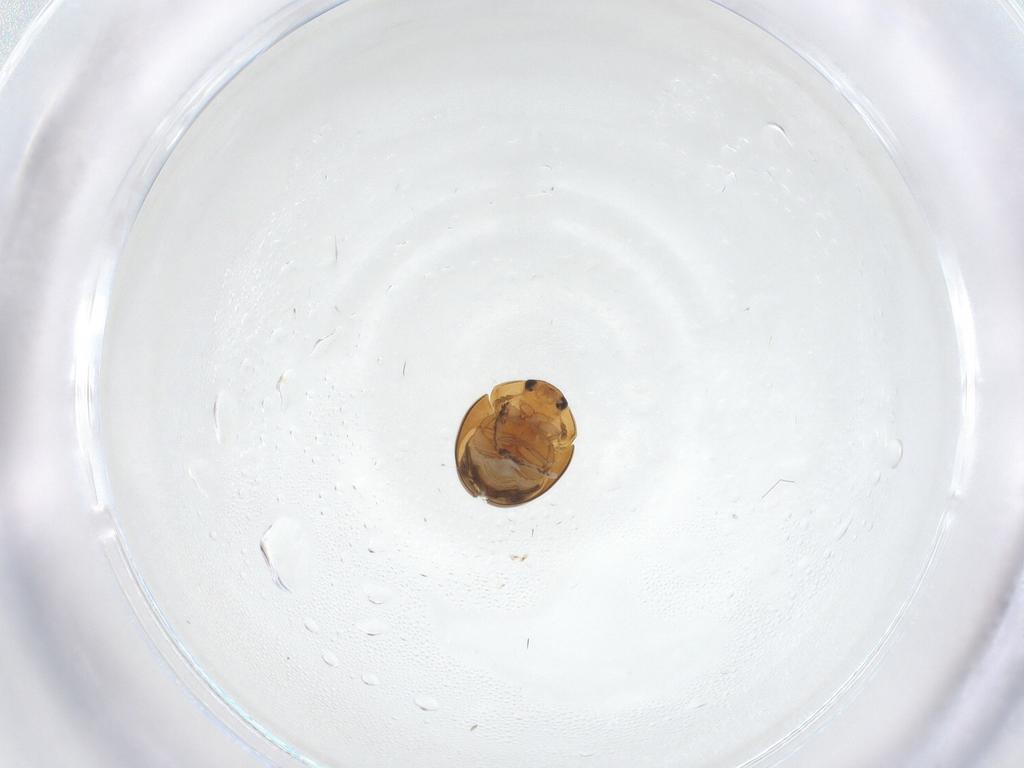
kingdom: Animalia
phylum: Arthropoda
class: Insecta
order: Coleoptera
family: Phalacridae
